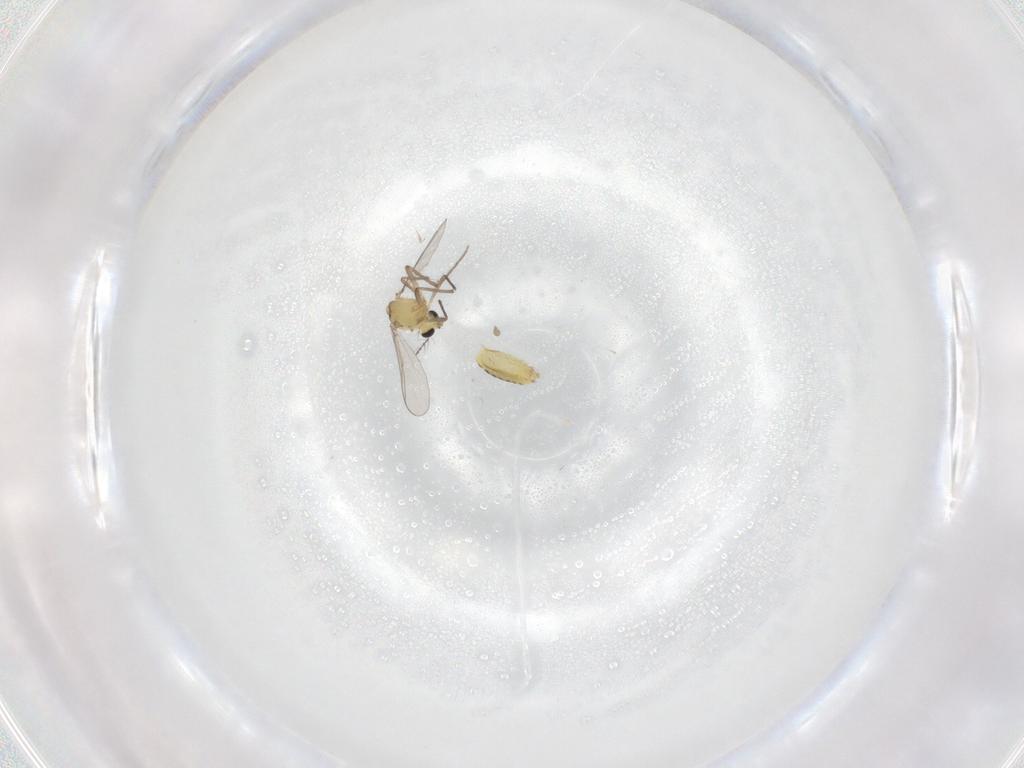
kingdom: Animalia
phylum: Arthropoda
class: Insecta
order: Diptera
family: Chironomidae
